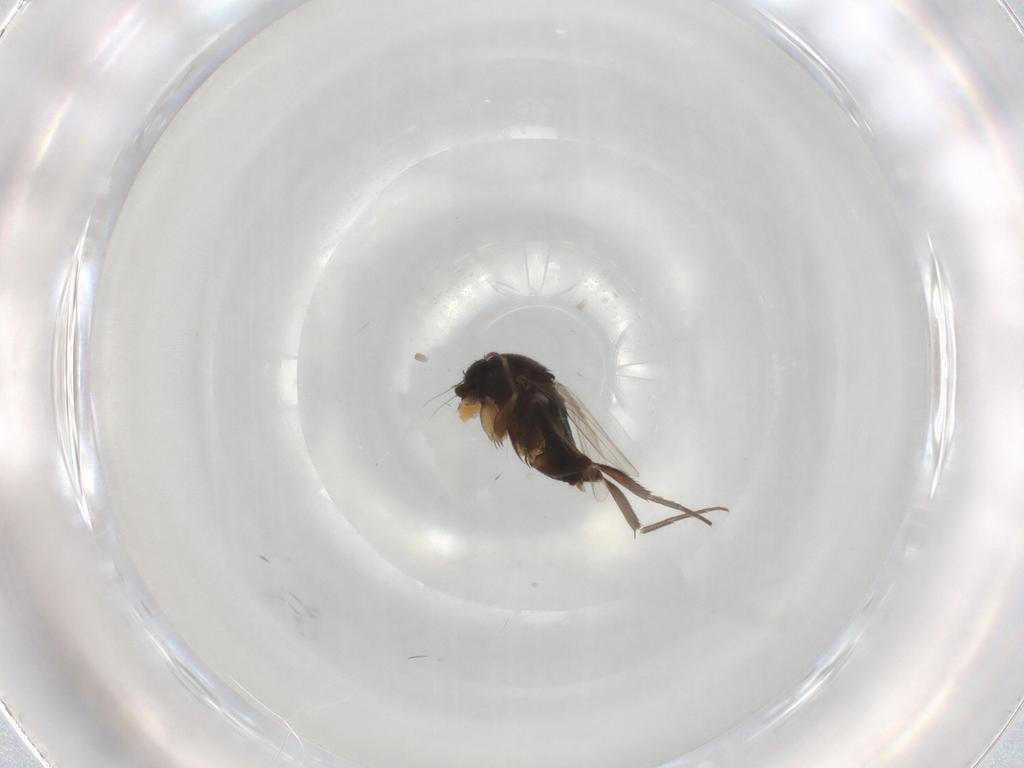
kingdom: Animalia
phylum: Arthropoda
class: Insecta
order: Diptera
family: Phoridae
